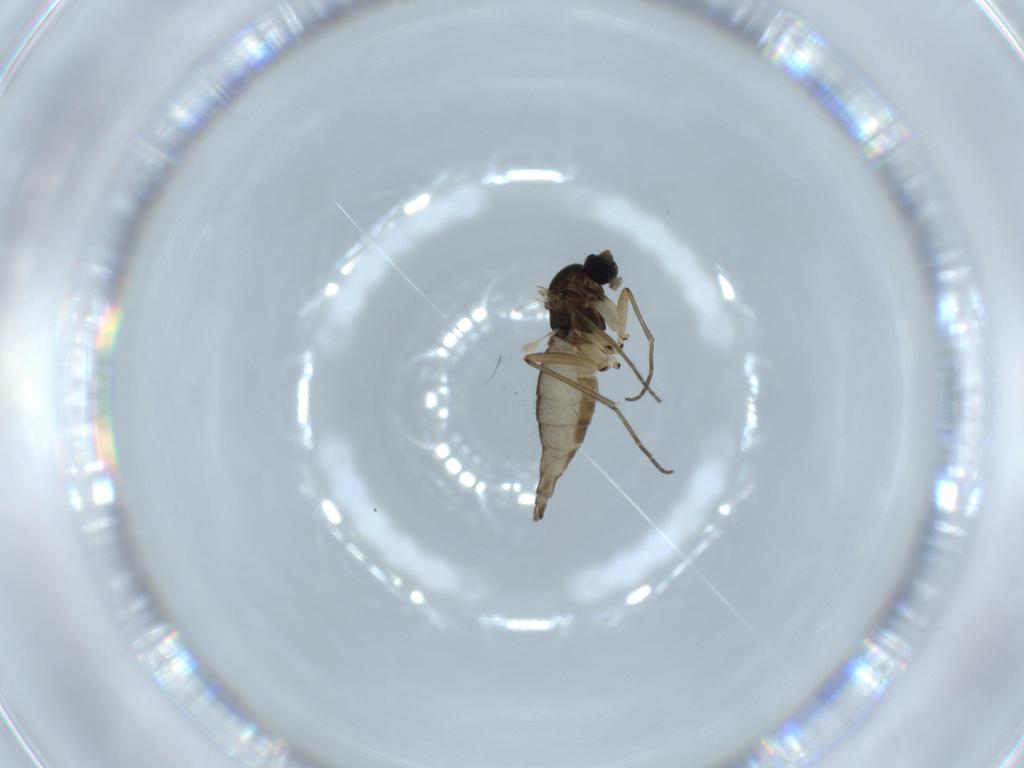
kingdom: Animalia
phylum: Arthropoda
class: Insecta
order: Diptera
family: Sciaridae
